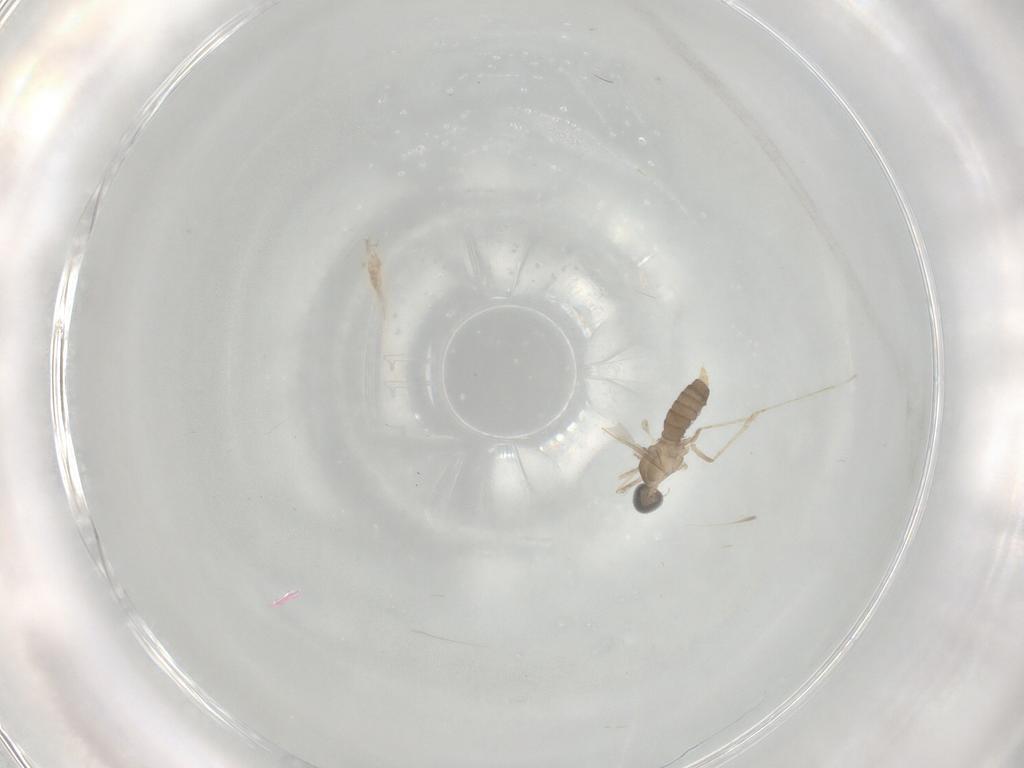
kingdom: Animalia
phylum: Arthropoda
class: Insecta
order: Diptera
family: Cecidomyiidae
